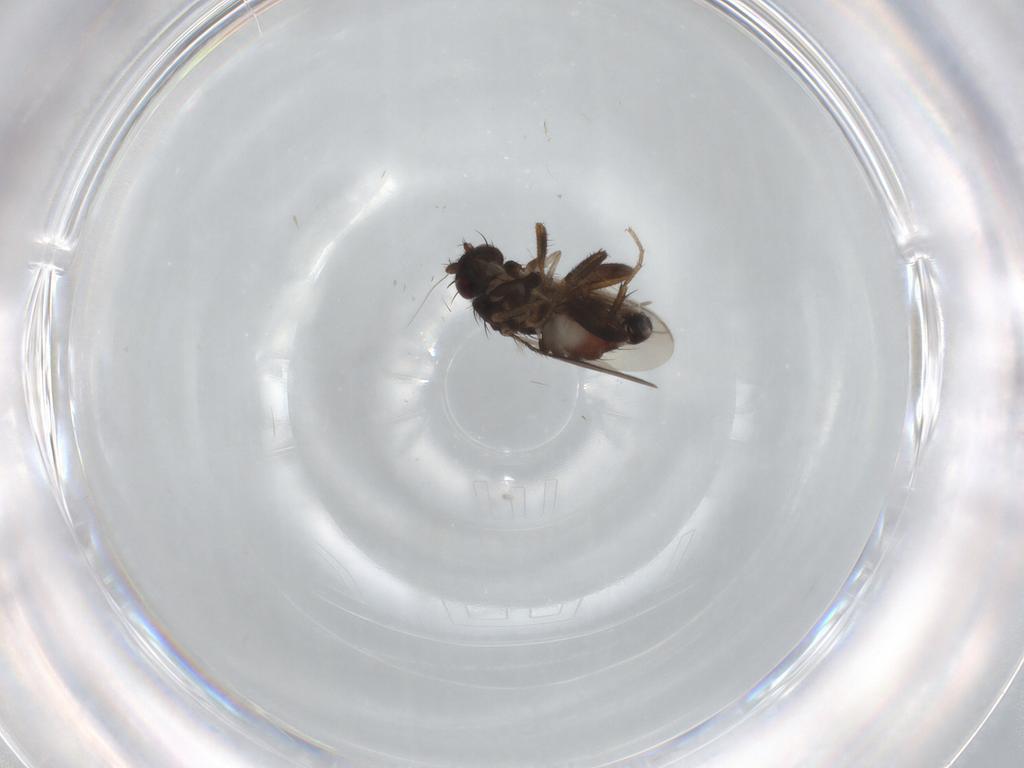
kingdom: Animalia
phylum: Arthropoda
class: Insecta
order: Diptera
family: Sphaeroceridae
